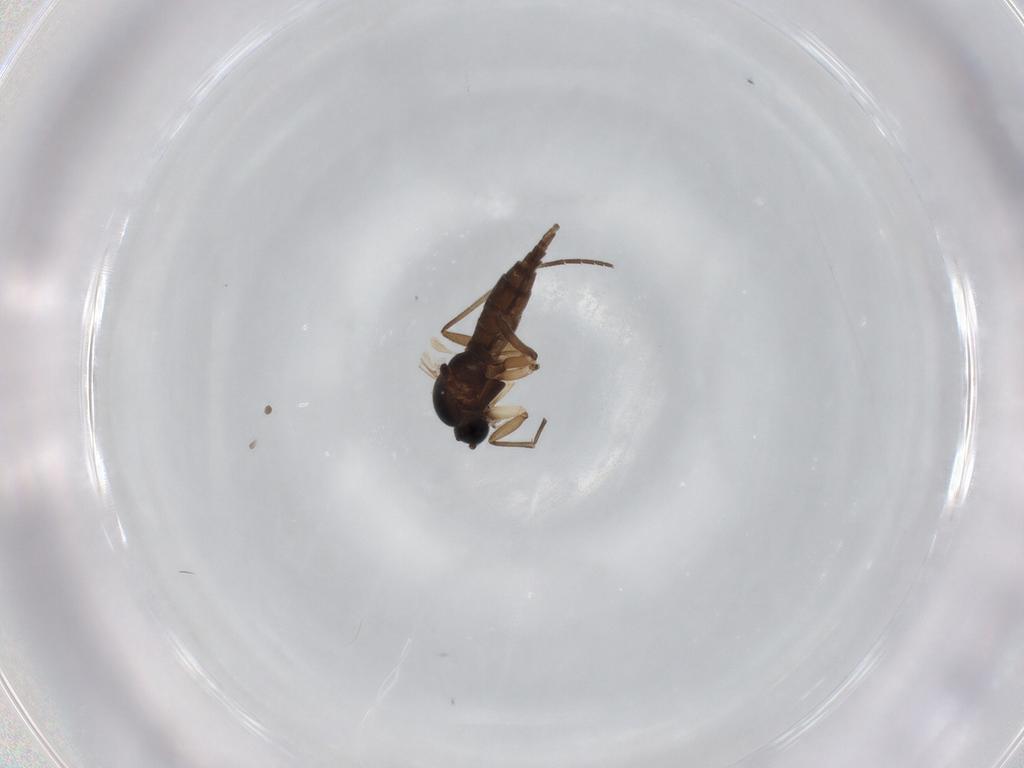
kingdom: Animalia
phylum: Arthropoda
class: Insecta
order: Diptera
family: Sciaridae
